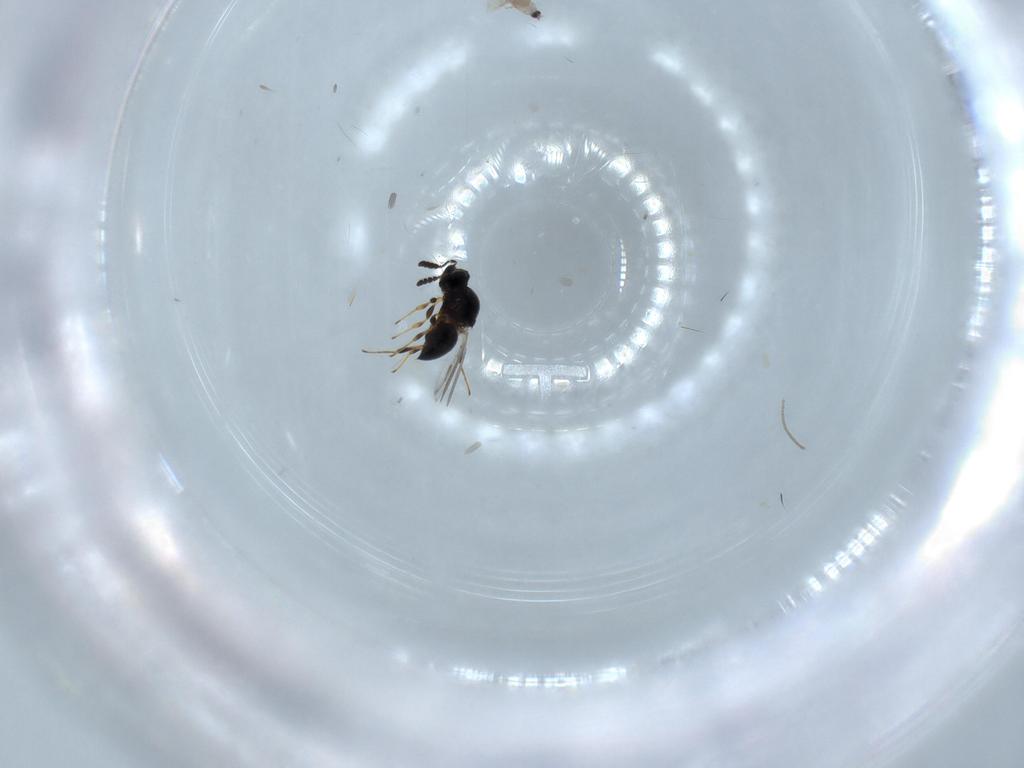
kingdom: Animalia
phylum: Arthropoda
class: Insecta
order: Hymenoptera
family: Platygastridae
